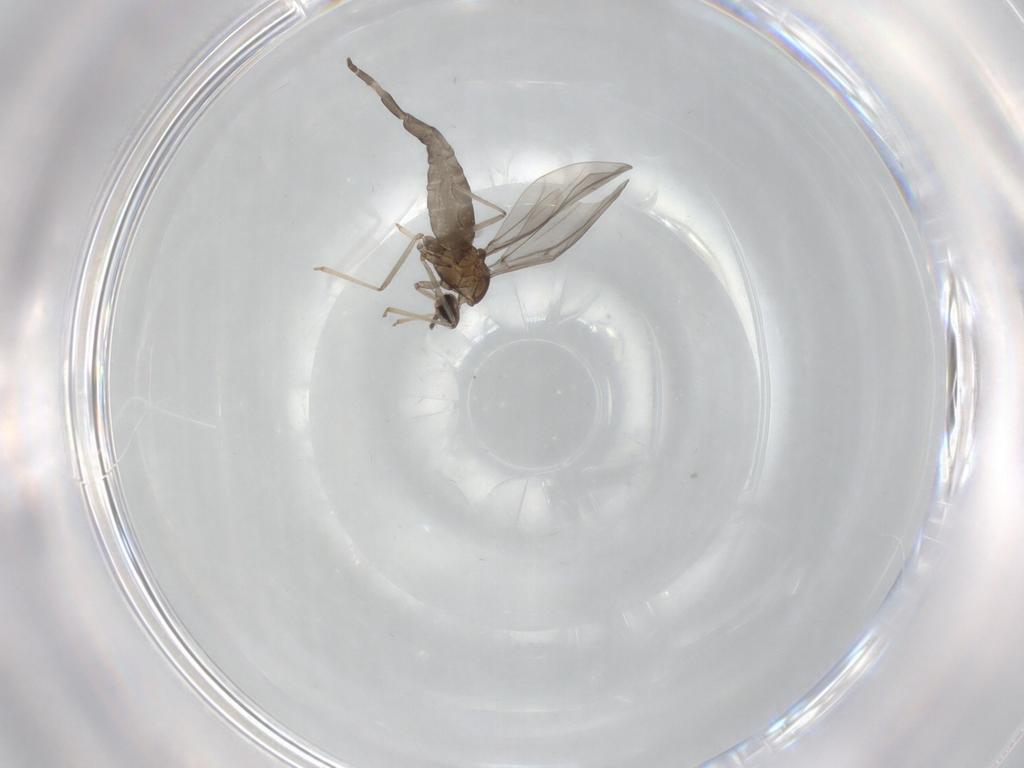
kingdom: Animalia
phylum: Arthropoda
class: Insecta
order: Diptera
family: Ceratopogonidae
